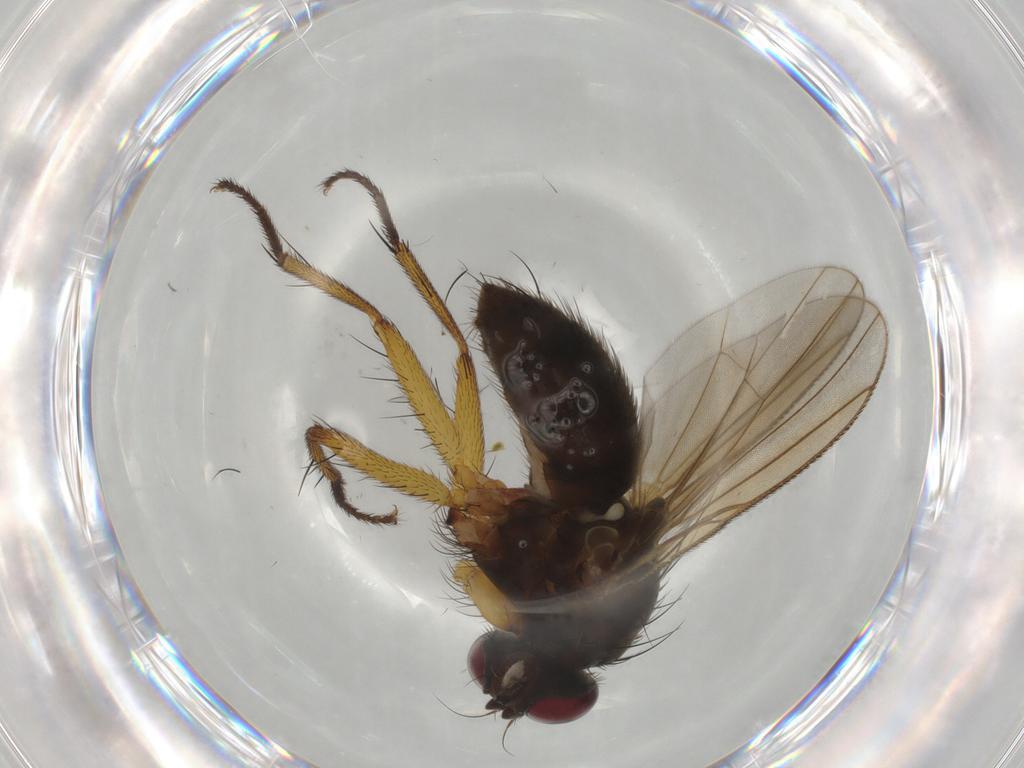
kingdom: Animalia
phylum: Arthropoda
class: Insecta
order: Diptera
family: Muscidae
